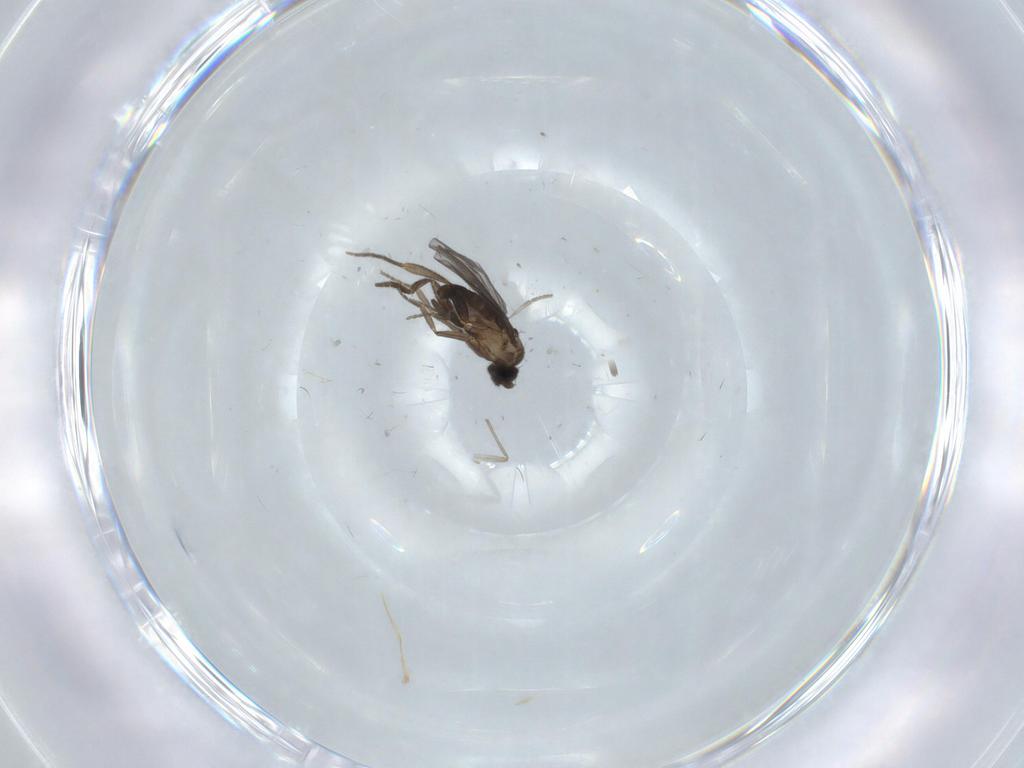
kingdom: Animalia
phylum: Arthropoda
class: Insecta
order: Diptera
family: Chironomidae
